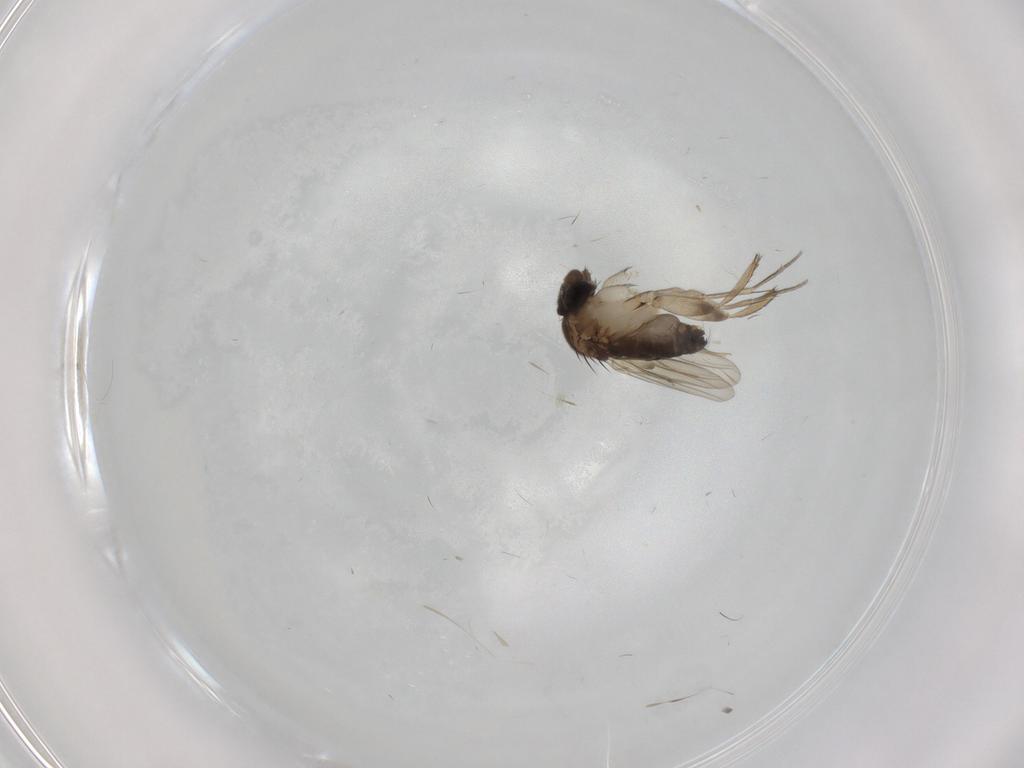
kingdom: Animalia
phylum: Arthropoda
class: Insecta
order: Diptera
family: Phoridae
